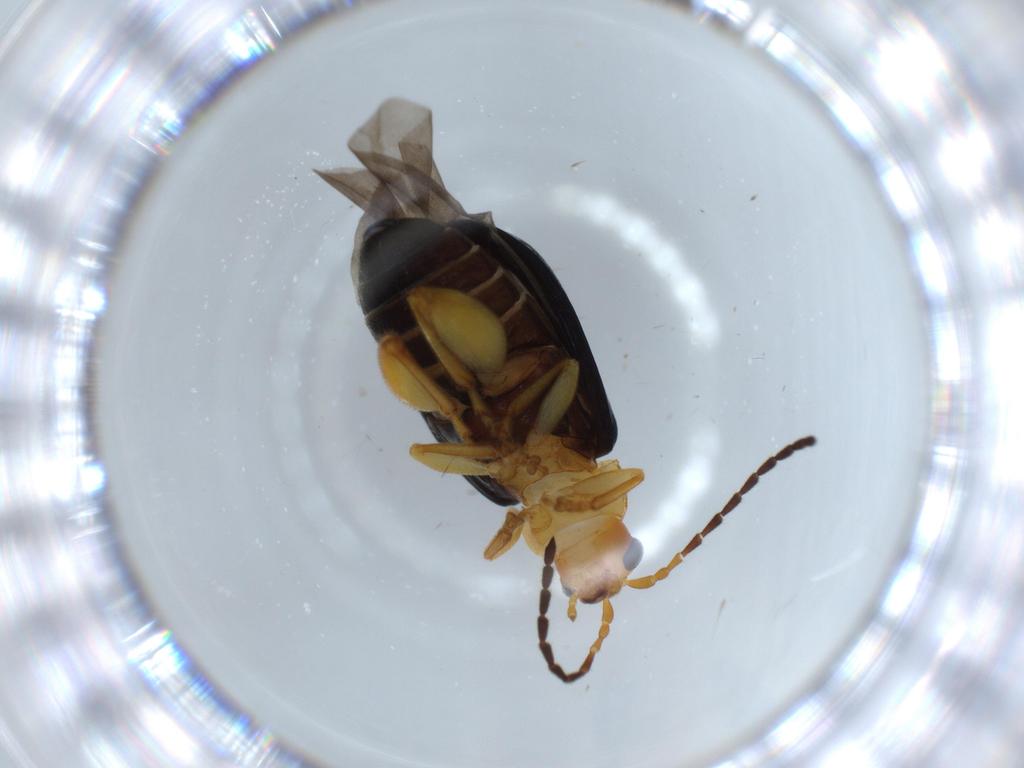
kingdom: Animalia
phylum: Arthropoda
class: Insecta
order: Coleoptera
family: Chrysomelidae
